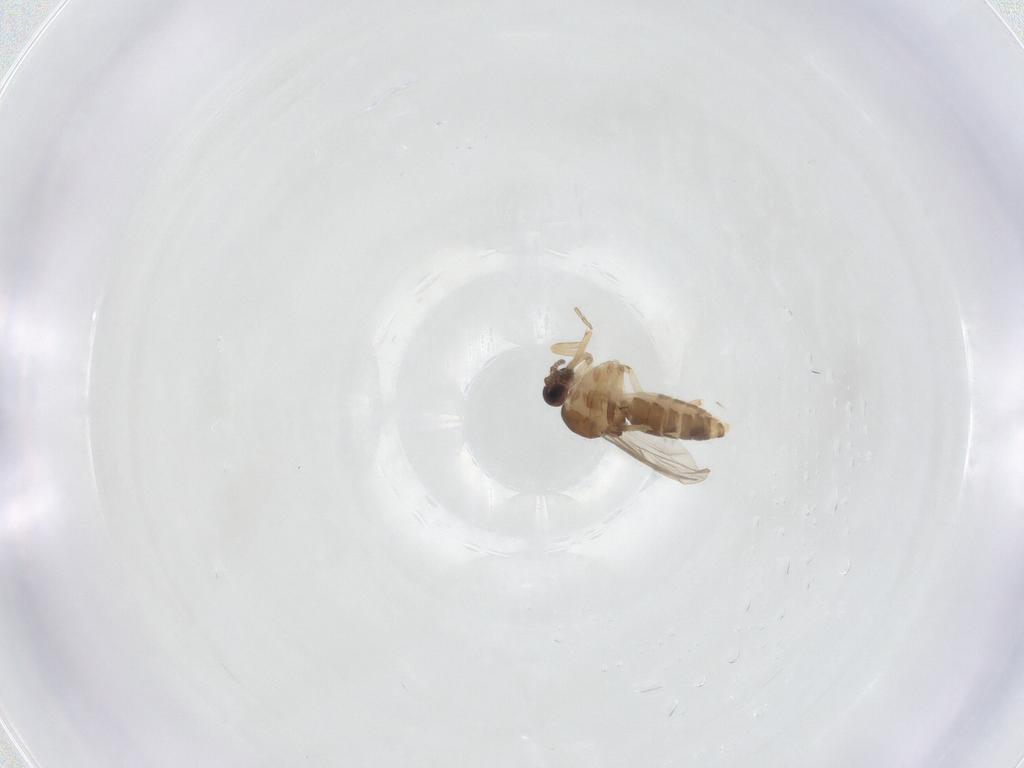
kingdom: Animalia
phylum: Arthropoda
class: Insecta
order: Diptera
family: Ceratopogonidae
